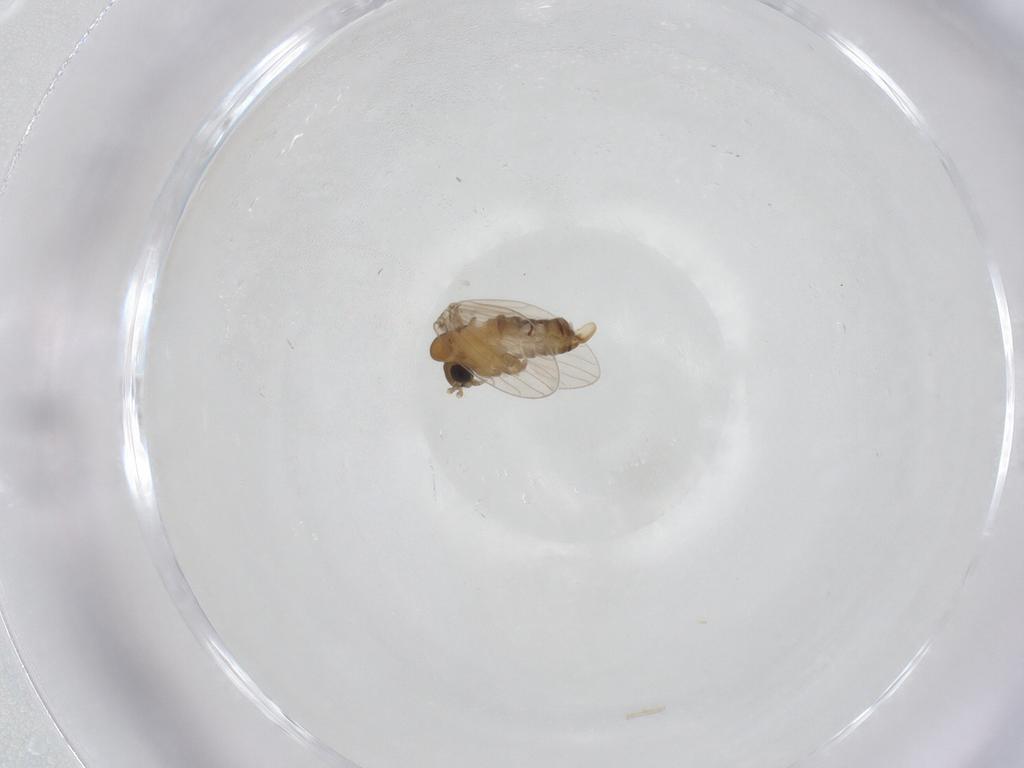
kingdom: Animalia
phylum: Arthropoda
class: Insecta
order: Diptera
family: Psychodidae
